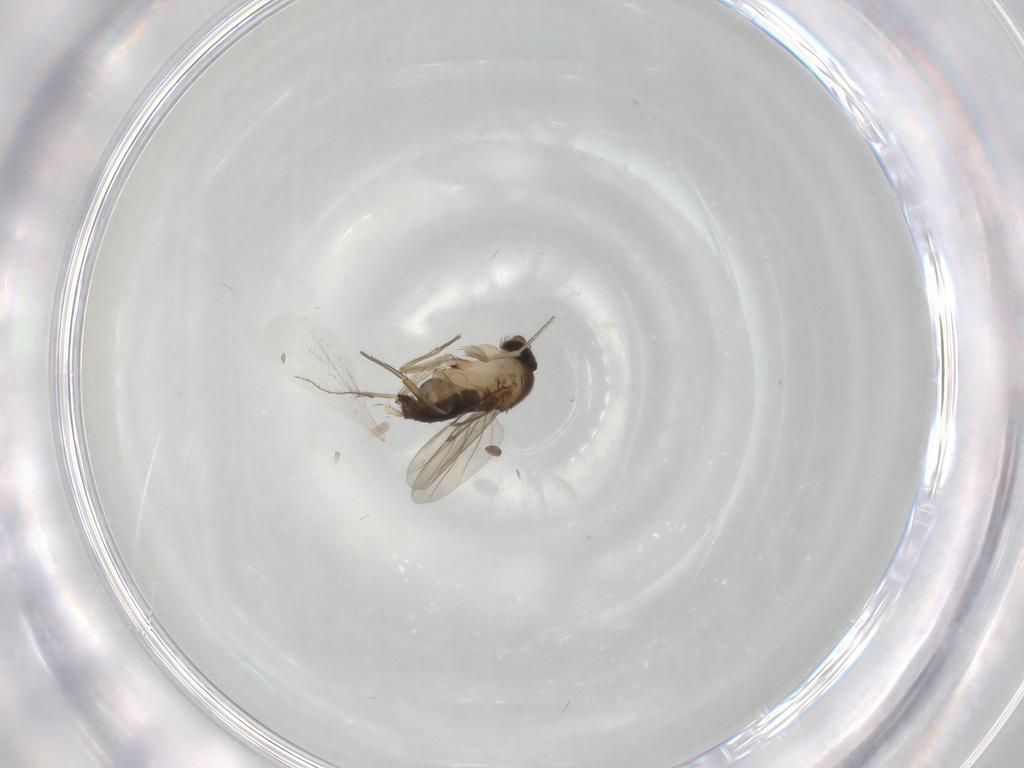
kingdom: Animalia
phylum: Arthropoda
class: Insecta
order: Diptera
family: Phoridae
